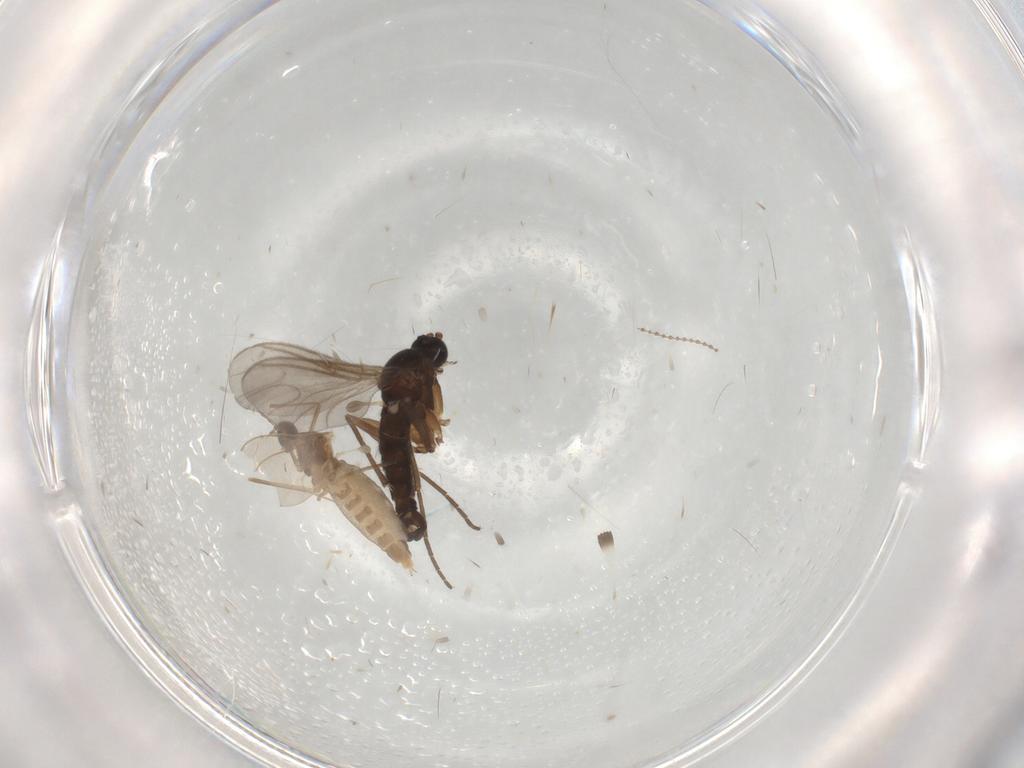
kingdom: Animalia
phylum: Arthropoda
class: Insecta
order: Diptera
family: Cecidomyiidae
